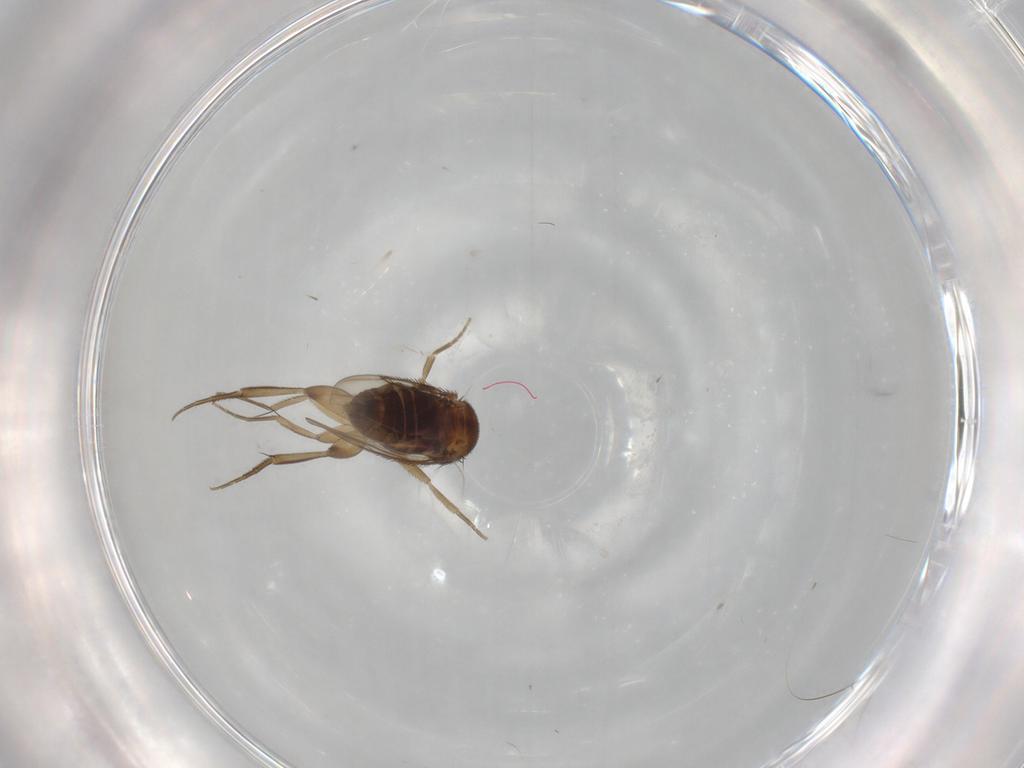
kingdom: Animalia
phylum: Arthropoda
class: Insecta
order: Diptera
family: Phoridae
